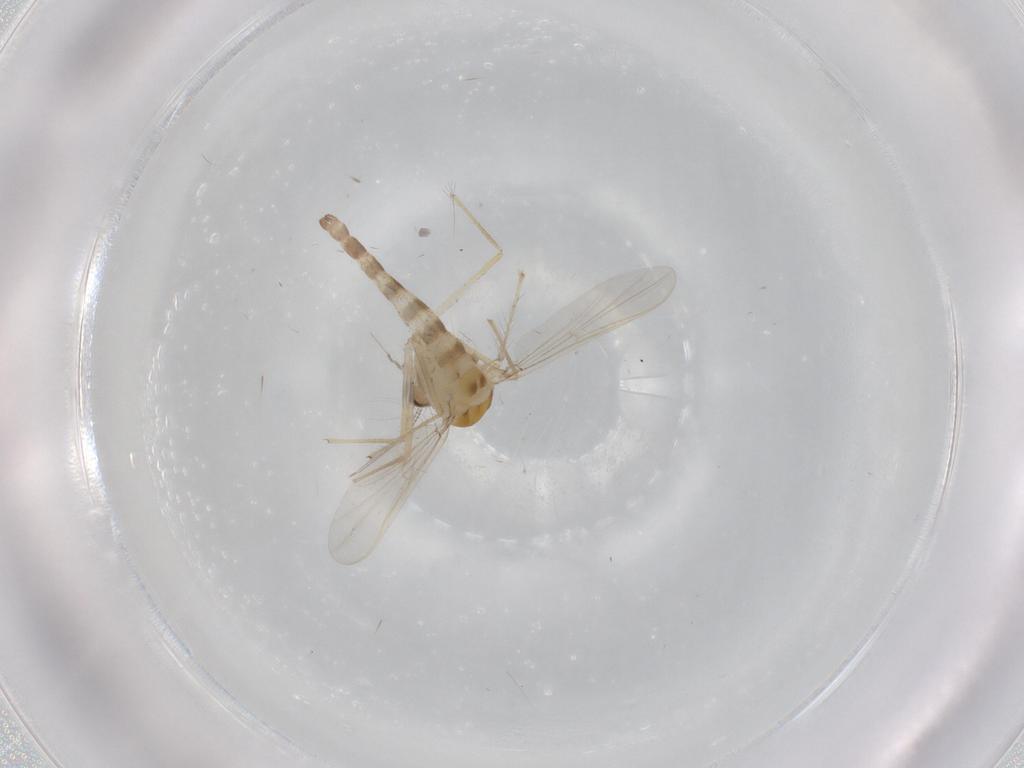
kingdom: Animalia
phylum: Arthropoda
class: Insecta
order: Diptera
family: Chironomidae
